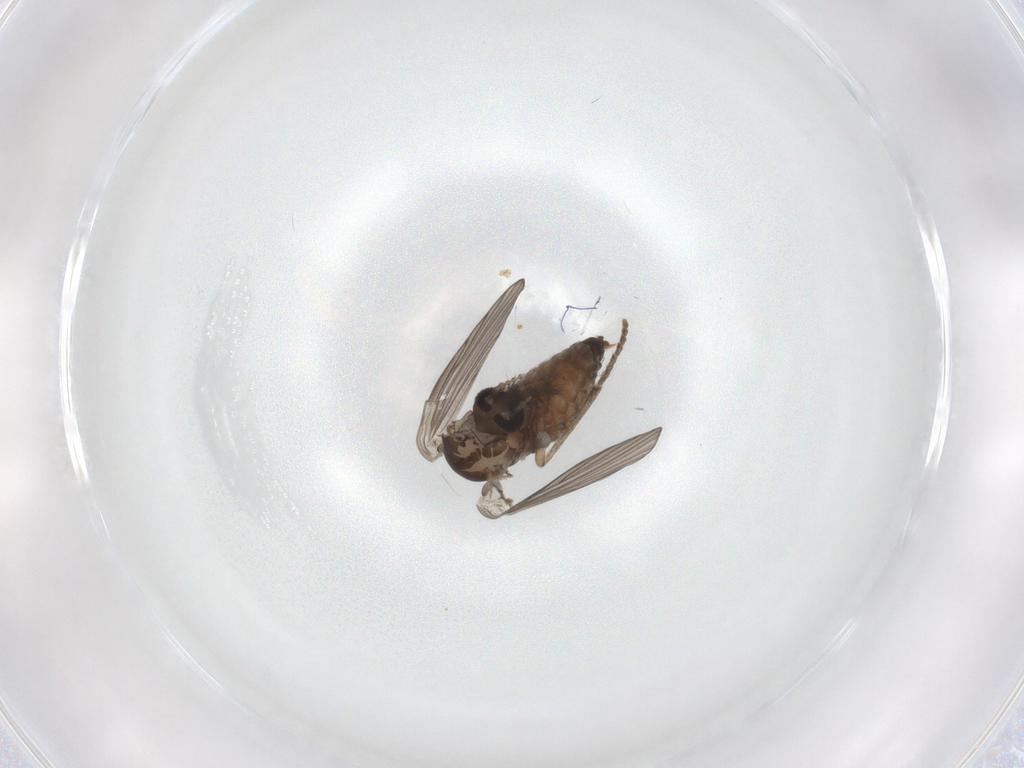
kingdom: Animalia
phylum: Arthropoda
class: Insecta
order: Diptera
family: Psychodidae
